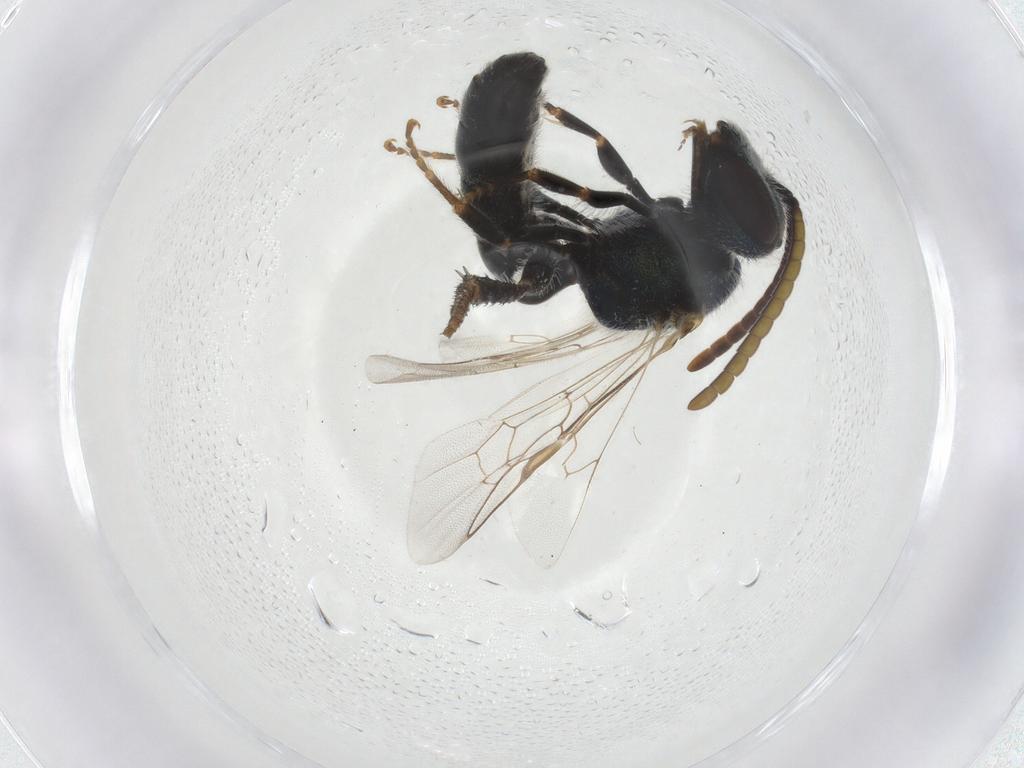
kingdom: Animalia
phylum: Arthropoda
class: Insecta
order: Hymenoptera
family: Halictidae
